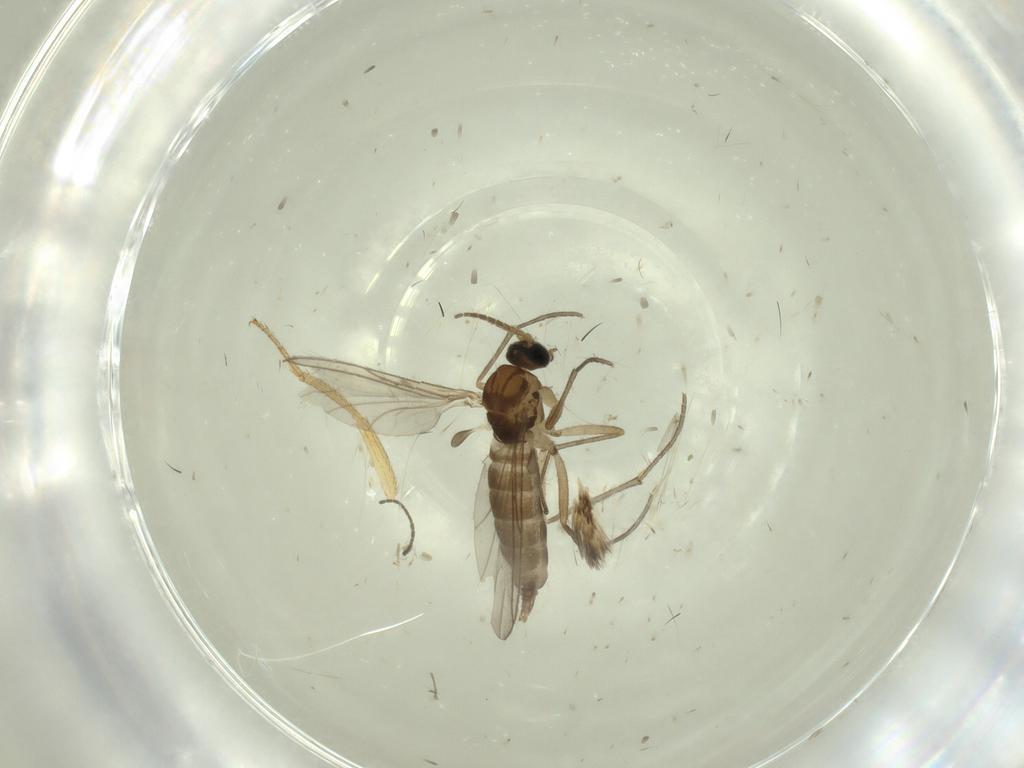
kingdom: Animalia
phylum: Arthropoda
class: Insecta
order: Diptera
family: Drosophilidae
